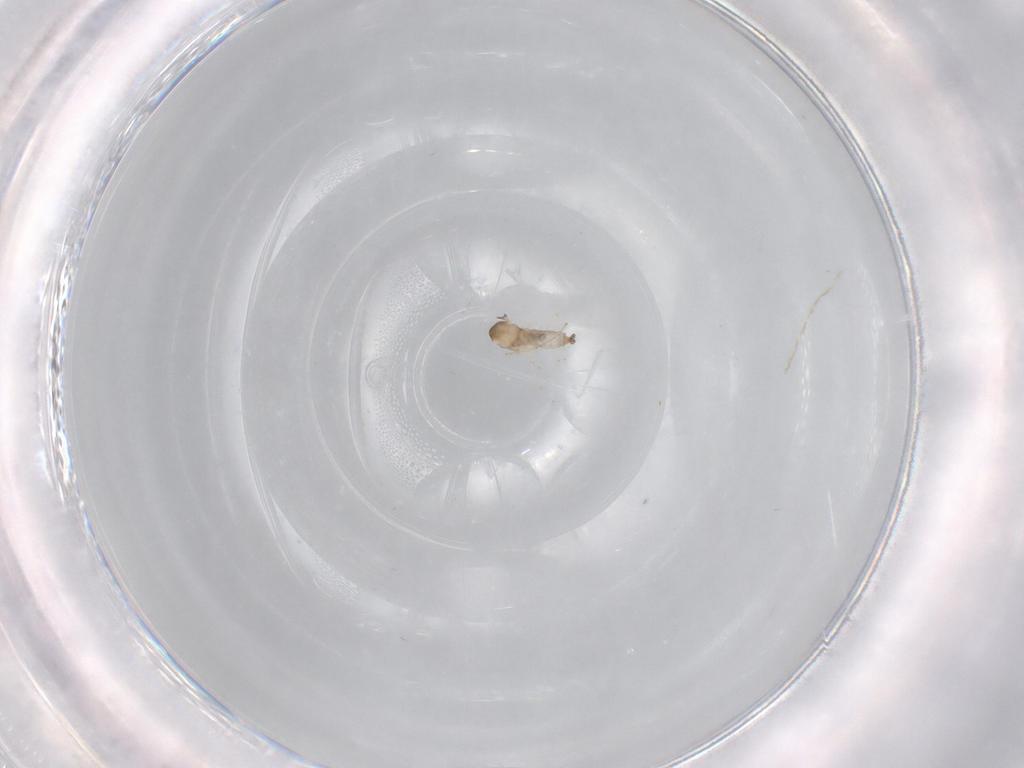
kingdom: Animalia
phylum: Arthropoda
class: Insecta
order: Diptera
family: Cecidomyiidae
